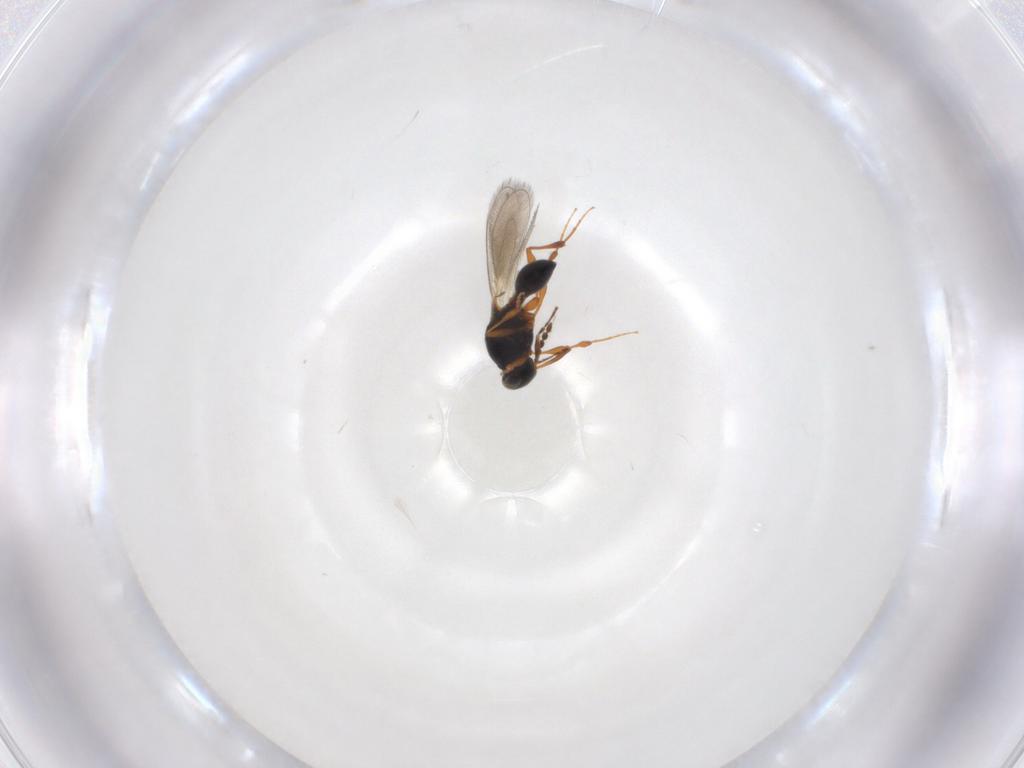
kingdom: Animalia
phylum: Arthropoda
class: Insecta
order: Hymenoptera
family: Platygastridae
